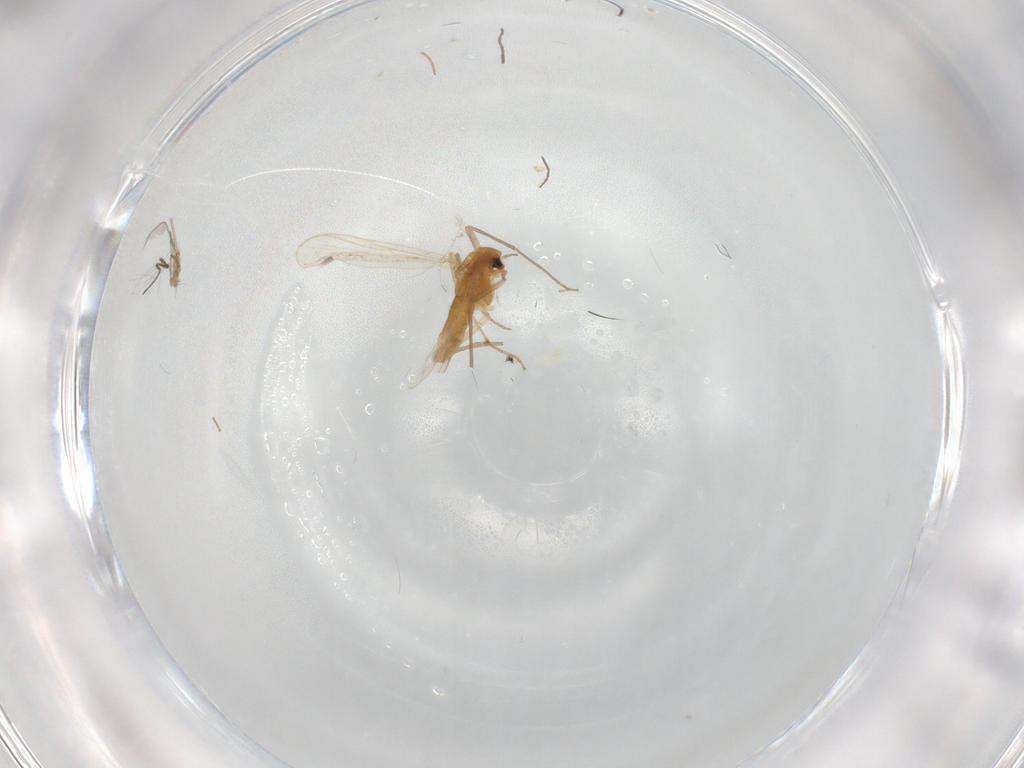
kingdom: Animalia
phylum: Arthropoda
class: Insecta
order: Diptera
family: Chironomidae
